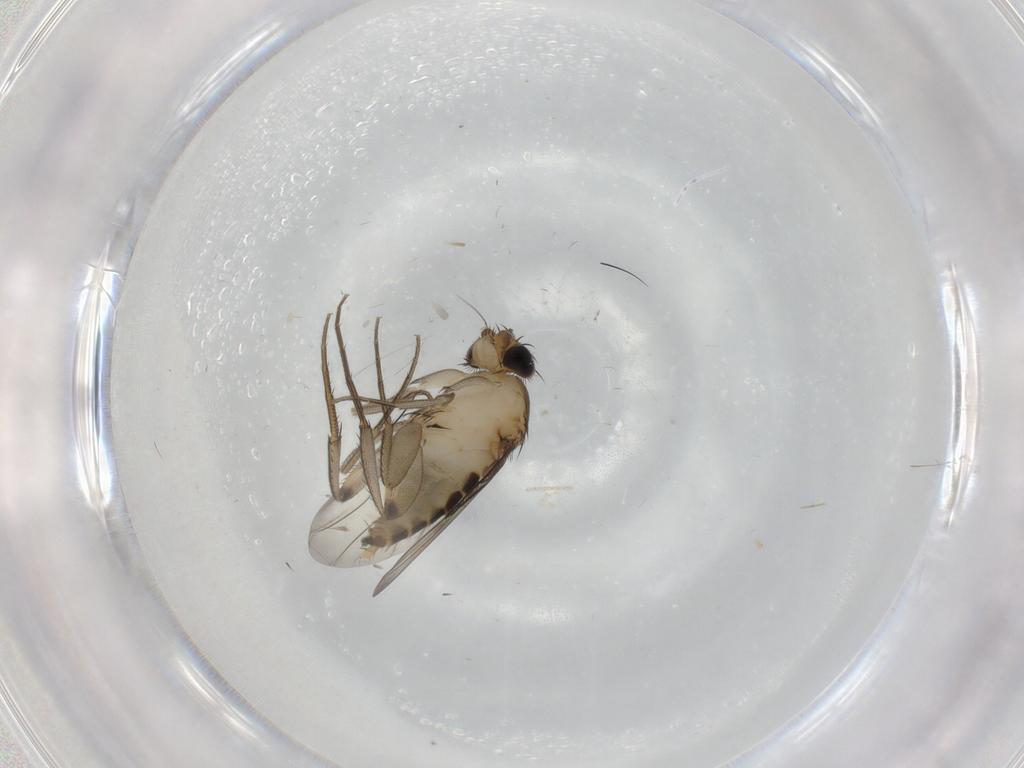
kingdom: Animalia
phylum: Arthropoda
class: Insecta
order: Diptera
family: Phoridae
